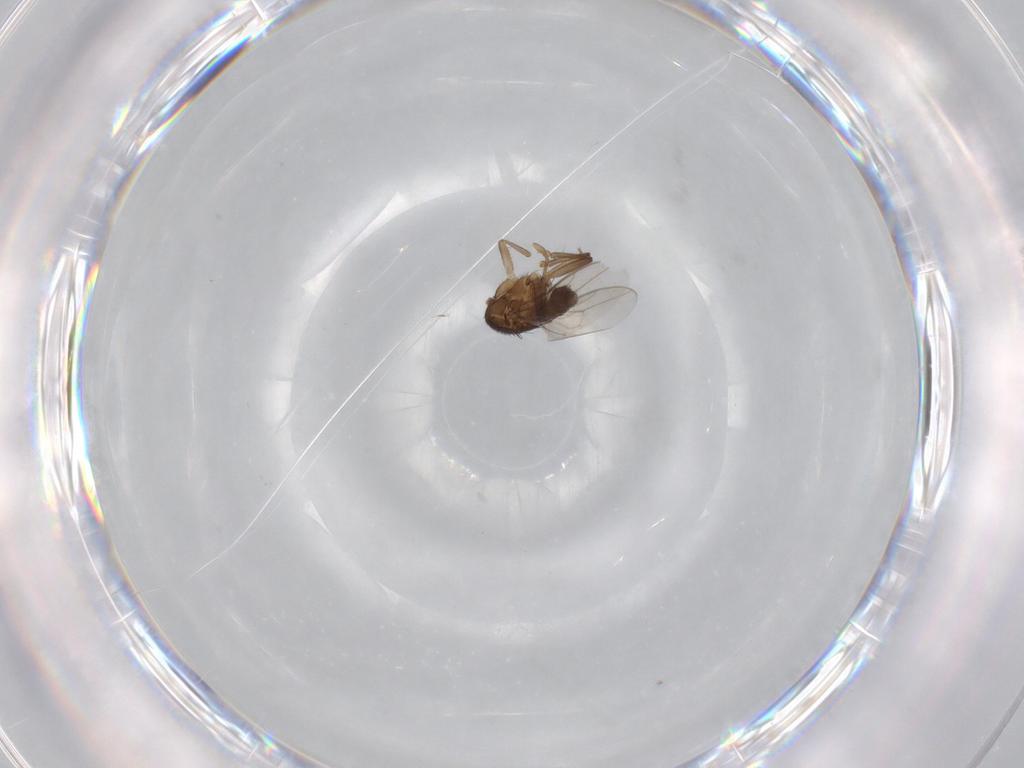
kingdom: Animalia
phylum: Arthropoda
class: Insecta
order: Diptera
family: Sphaeroceridae
